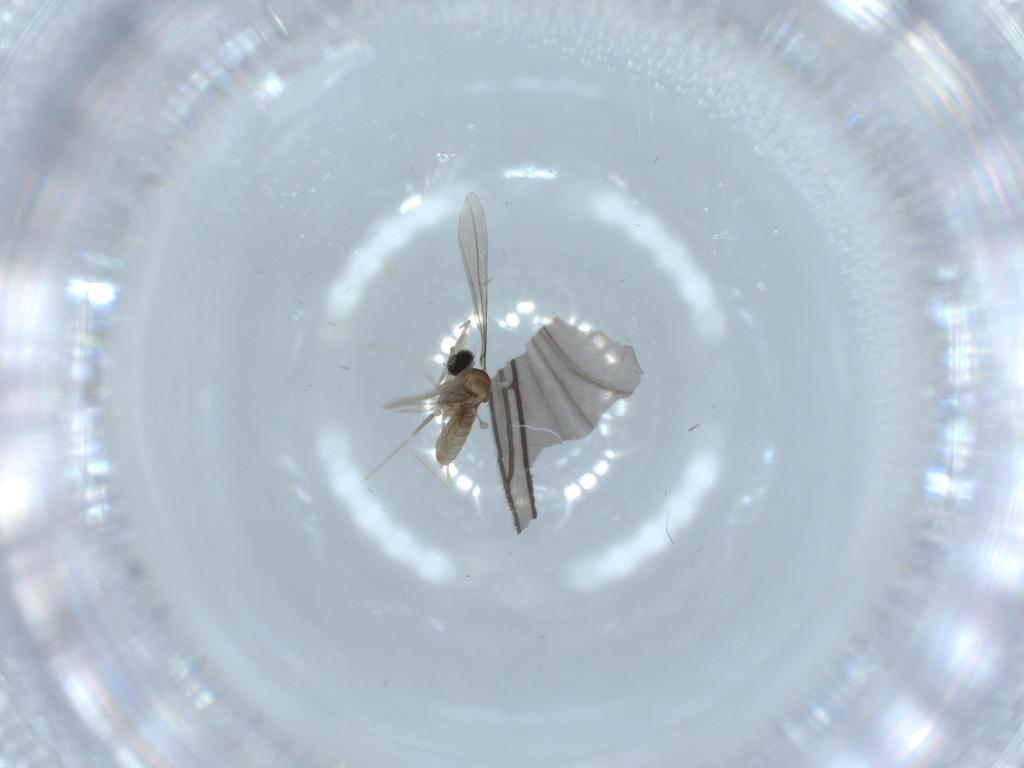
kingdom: Animalia
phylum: Arthropoda
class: Insecta
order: Diptera
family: Sciaridae
